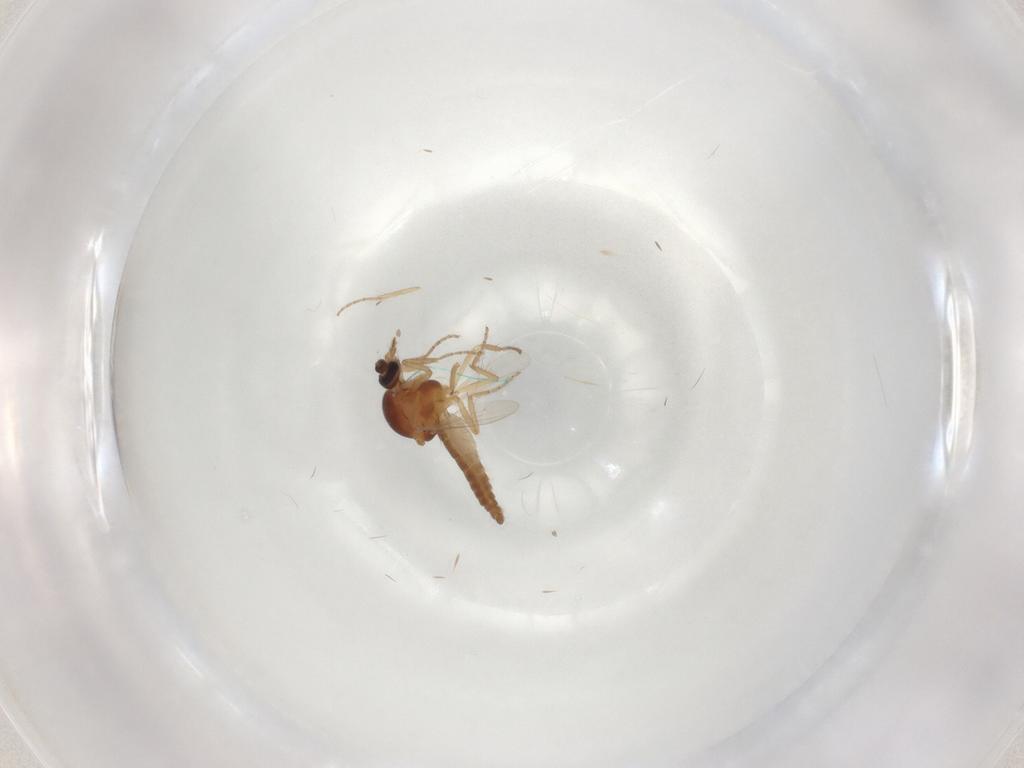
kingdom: Animalia
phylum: Arthropoda
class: Insecta
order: Diptera
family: Ceratopogonidae
